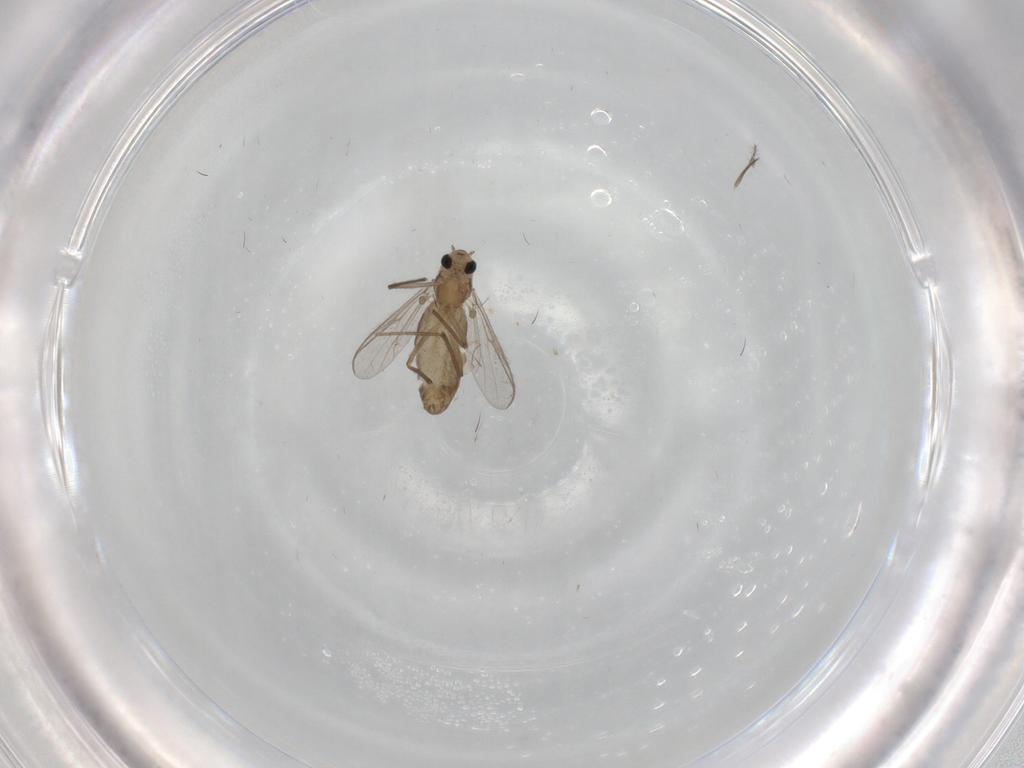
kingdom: Animalia
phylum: Arthropoda
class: Insecta
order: Diptera
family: Chironomidae
